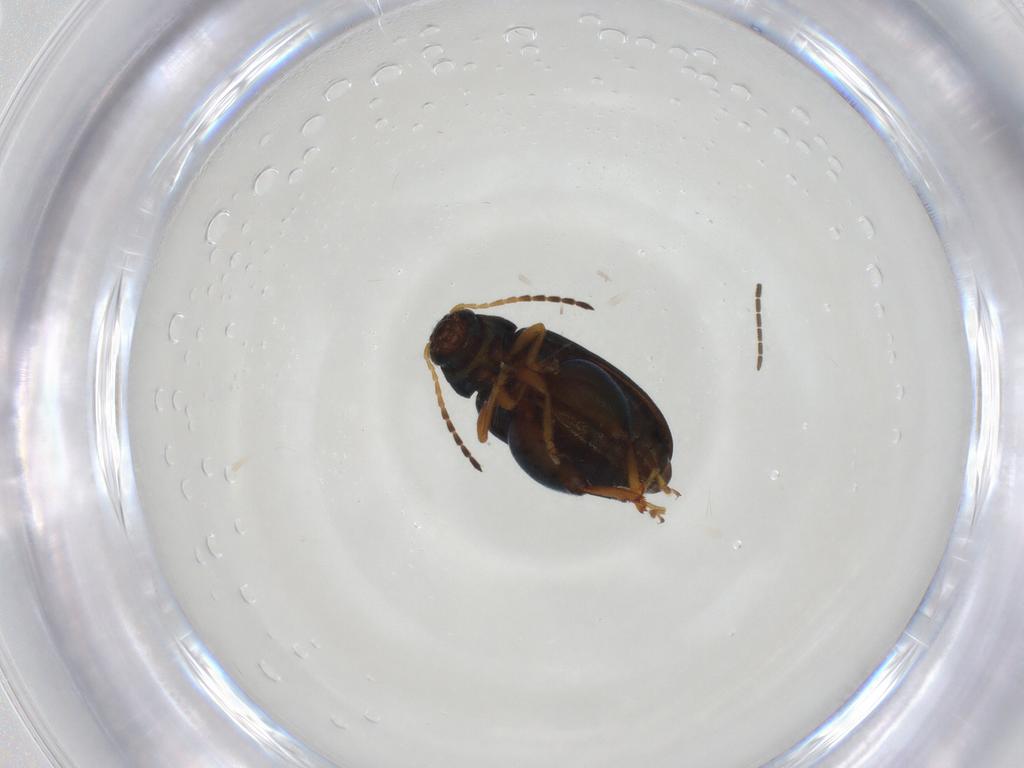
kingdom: Animalia
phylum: Arthropoda
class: Insecta
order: Coleoptera
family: Chrysomelidae
